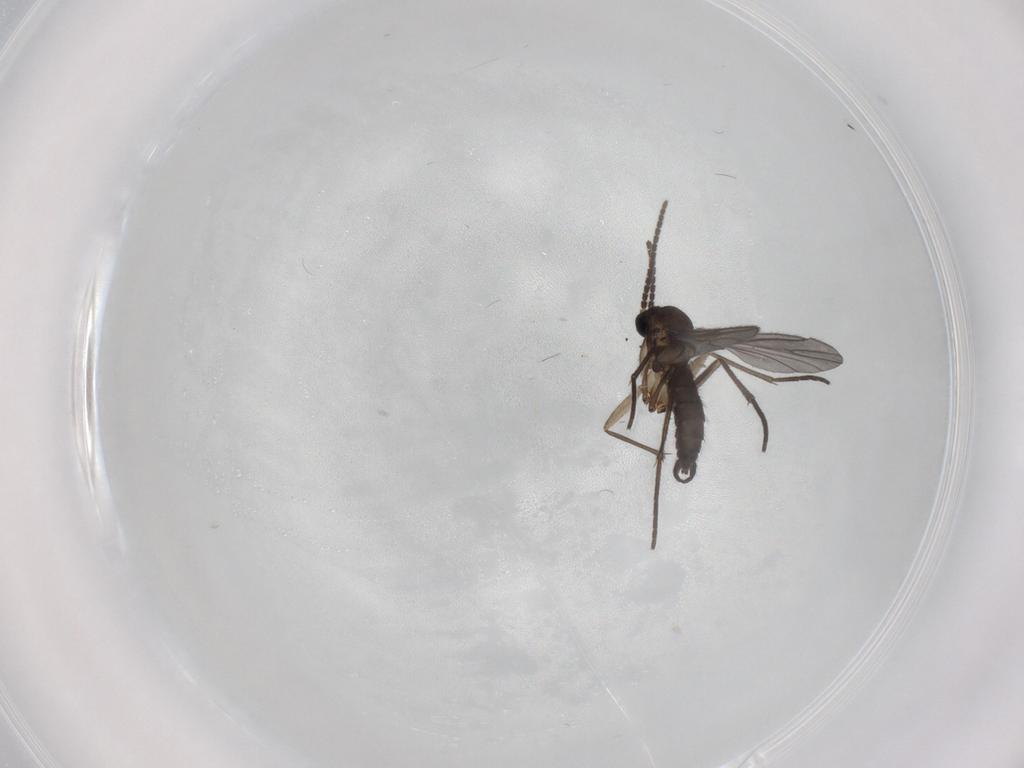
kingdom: Animalia
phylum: Arthropoda
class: Insecta
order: Diptera
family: Sciaridae
